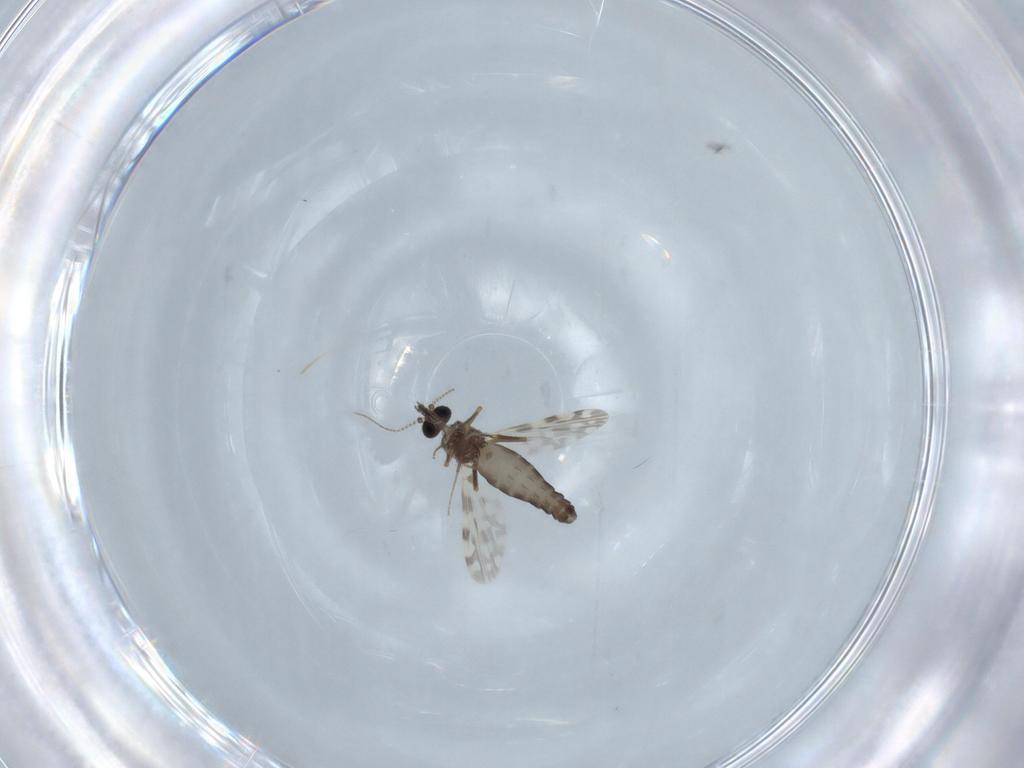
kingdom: Animalia
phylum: Arthropoda
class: Insecta
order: Diptera
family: Ceratopogonidae
